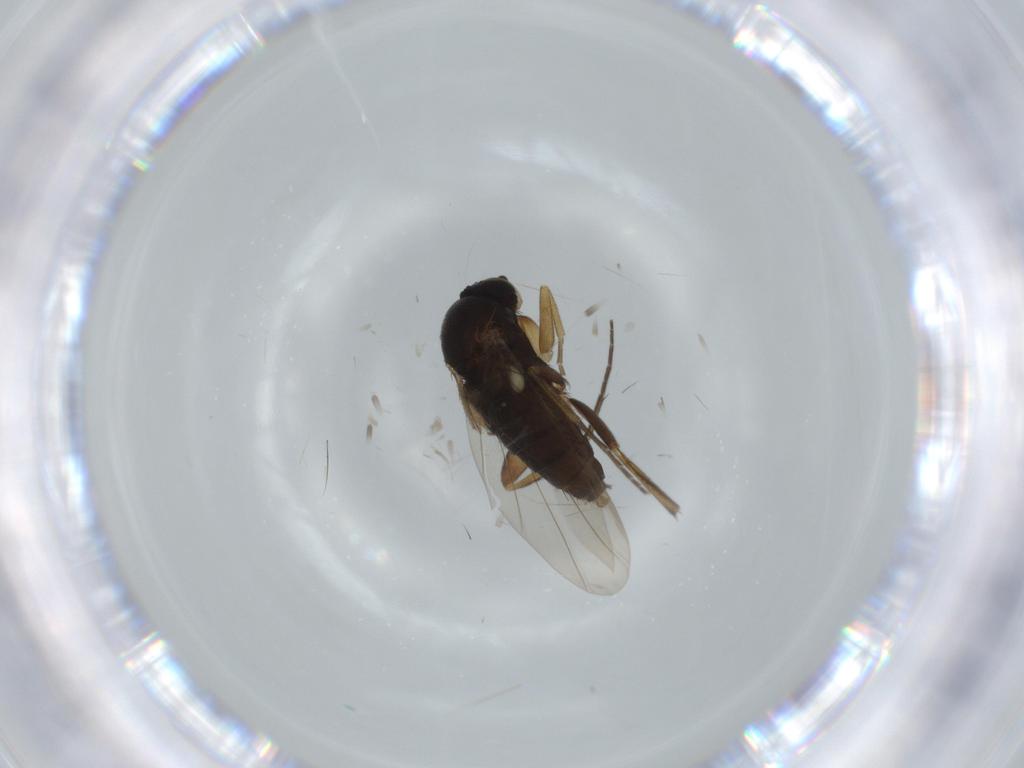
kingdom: Animalia
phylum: Arthropoda
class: Insecta
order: Diptera
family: Cecidomyiidae
